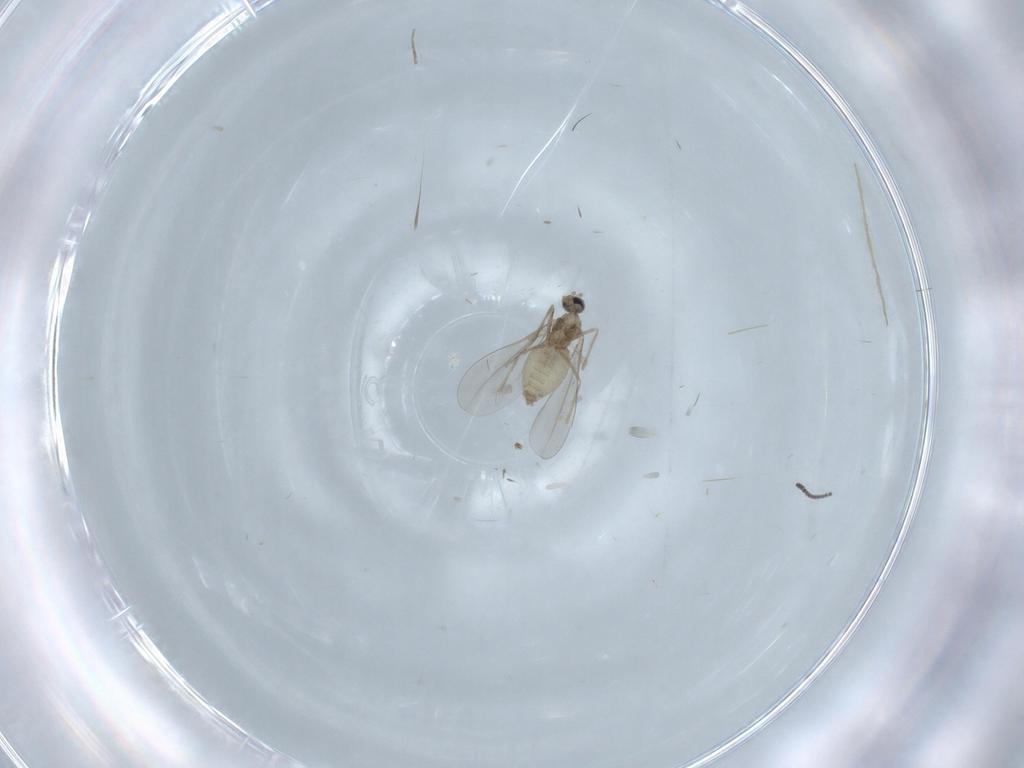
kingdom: Animalia
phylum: Arthropoda
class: Insecta
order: Diptera
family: Cecidomyiidae
